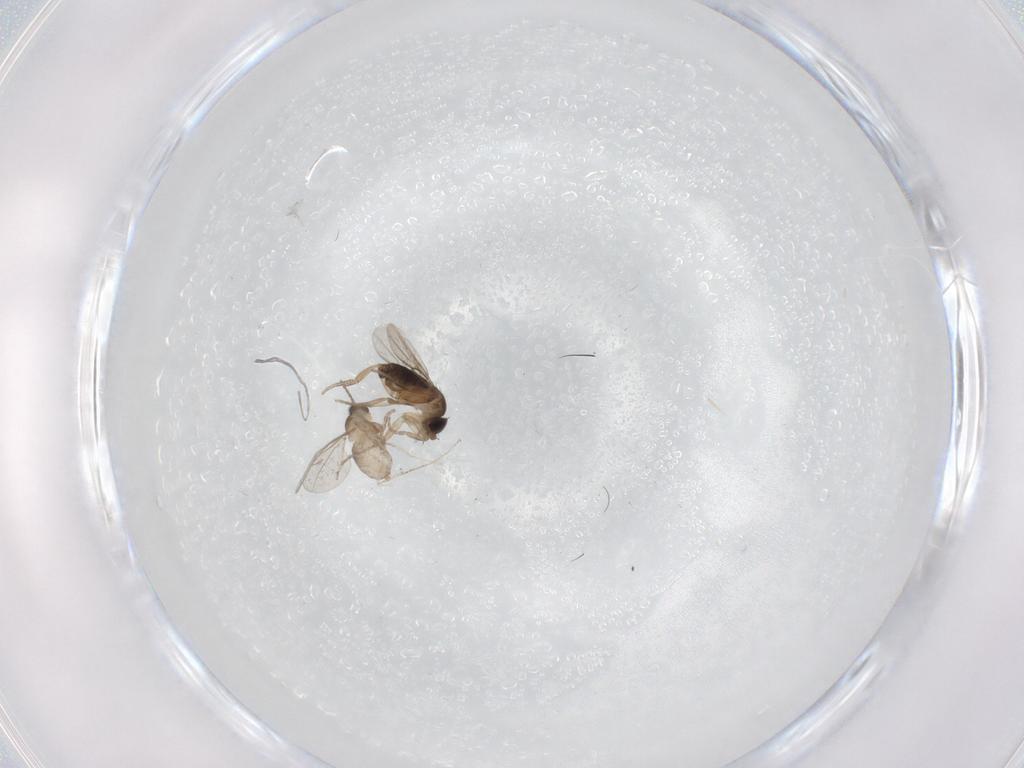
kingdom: Animalia
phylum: Arthropoda
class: Insecta
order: Diptera
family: Cecidomyiidae
